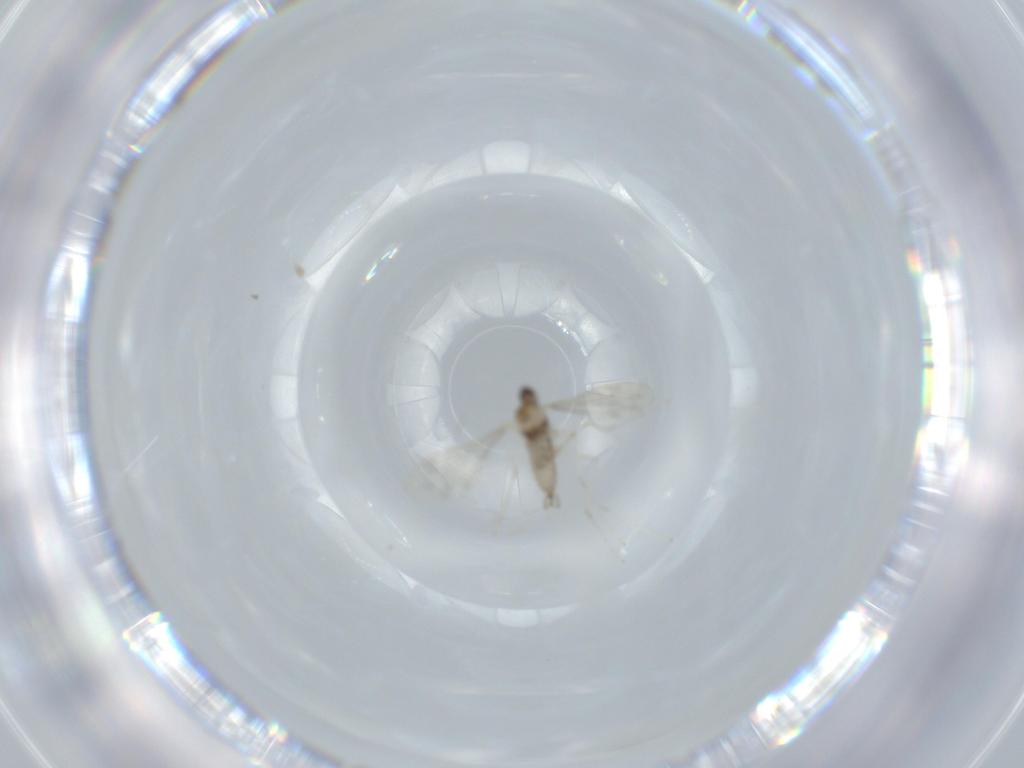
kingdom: Animalia
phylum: Arthropoda
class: Insecta
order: Diptera
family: Cecidomyiidae
